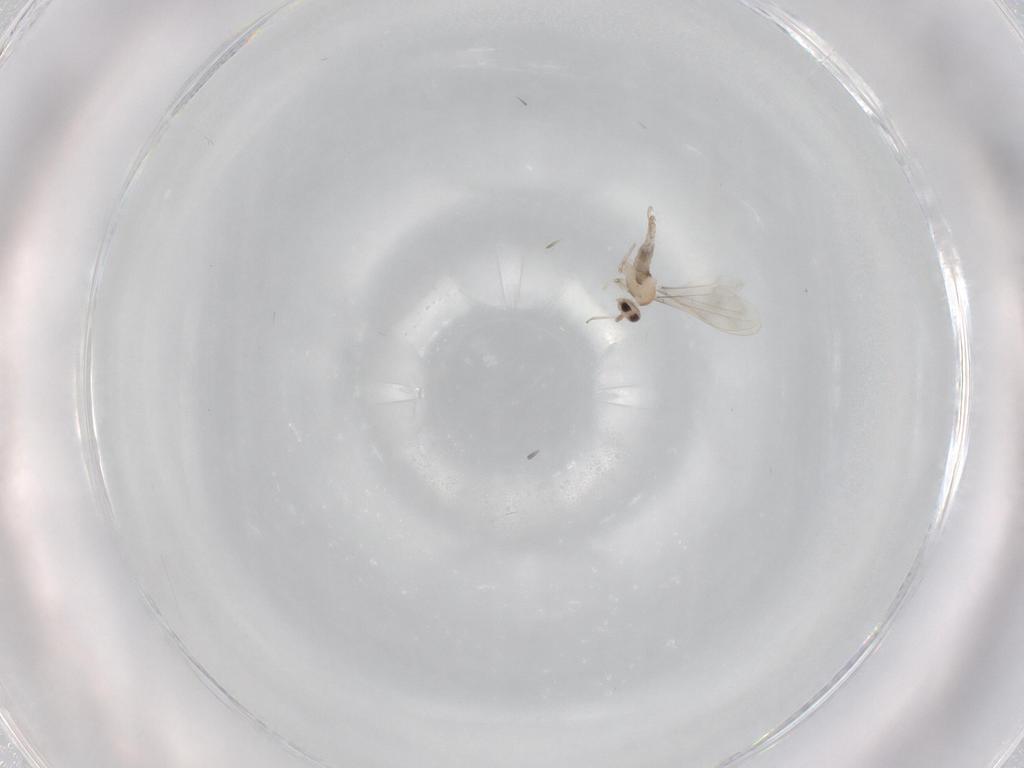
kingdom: Animalia
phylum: Arthropoda
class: Insecta
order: Diptera
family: Cecidomyiidae
